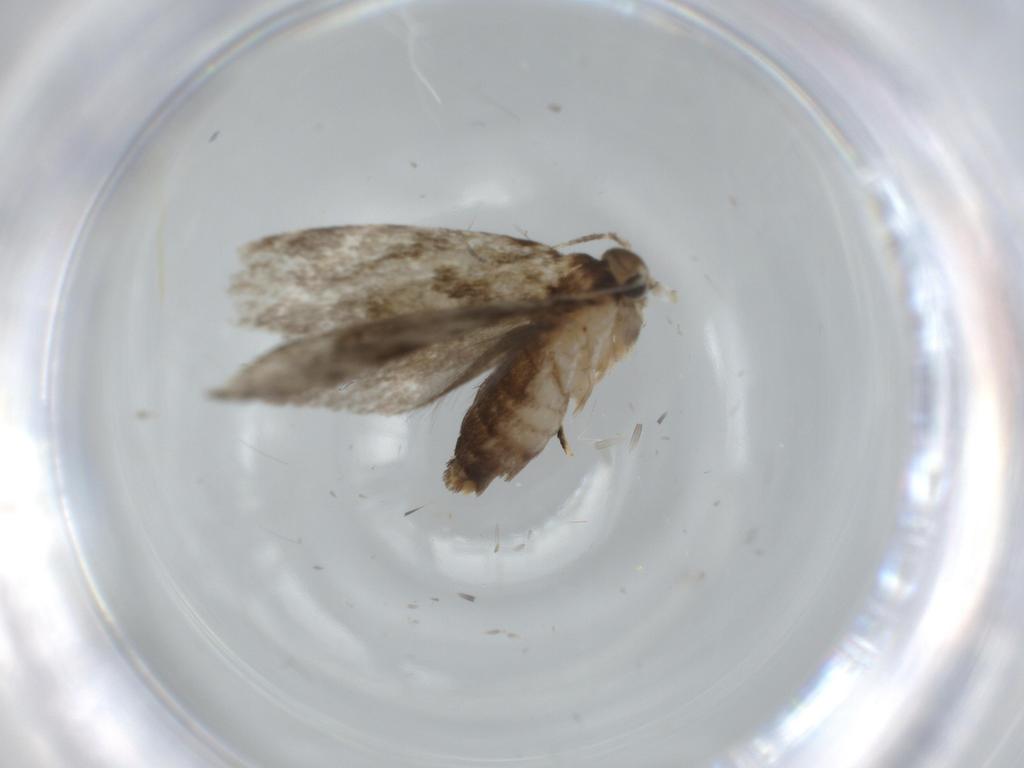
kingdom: Animalia
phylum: Arthropoda
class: Insecta
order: Lepidoptera
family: Tineidae
